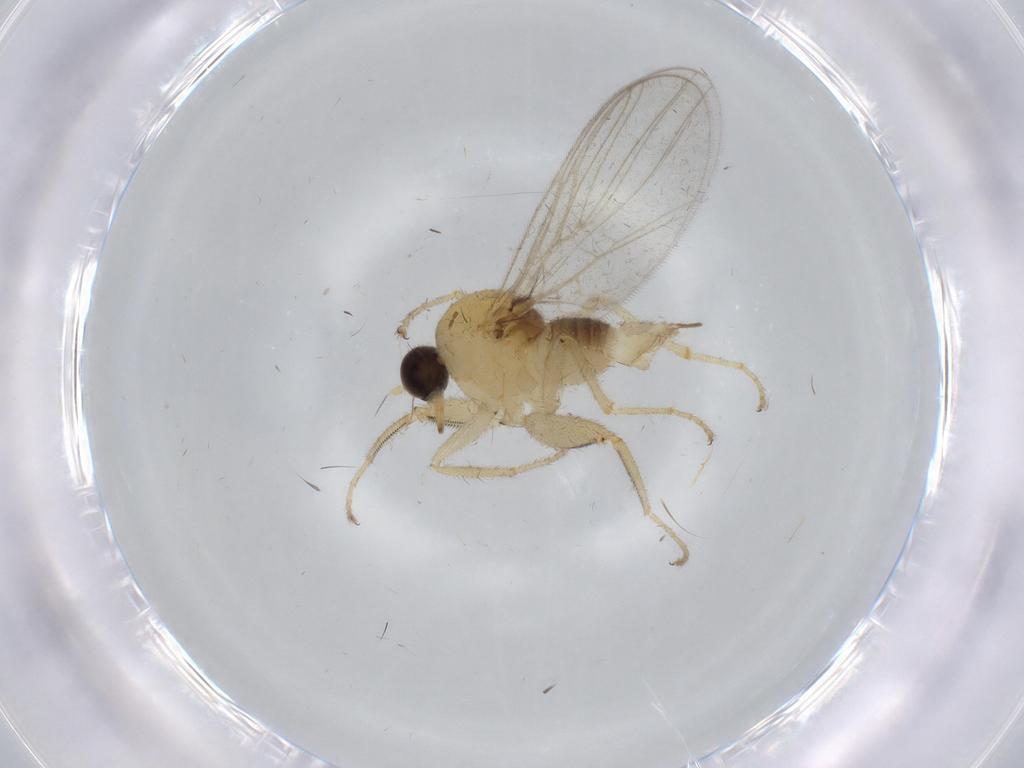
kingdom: Animalia
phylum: Arthropoda
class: Insecta
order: Diptera
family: Hybotidae
